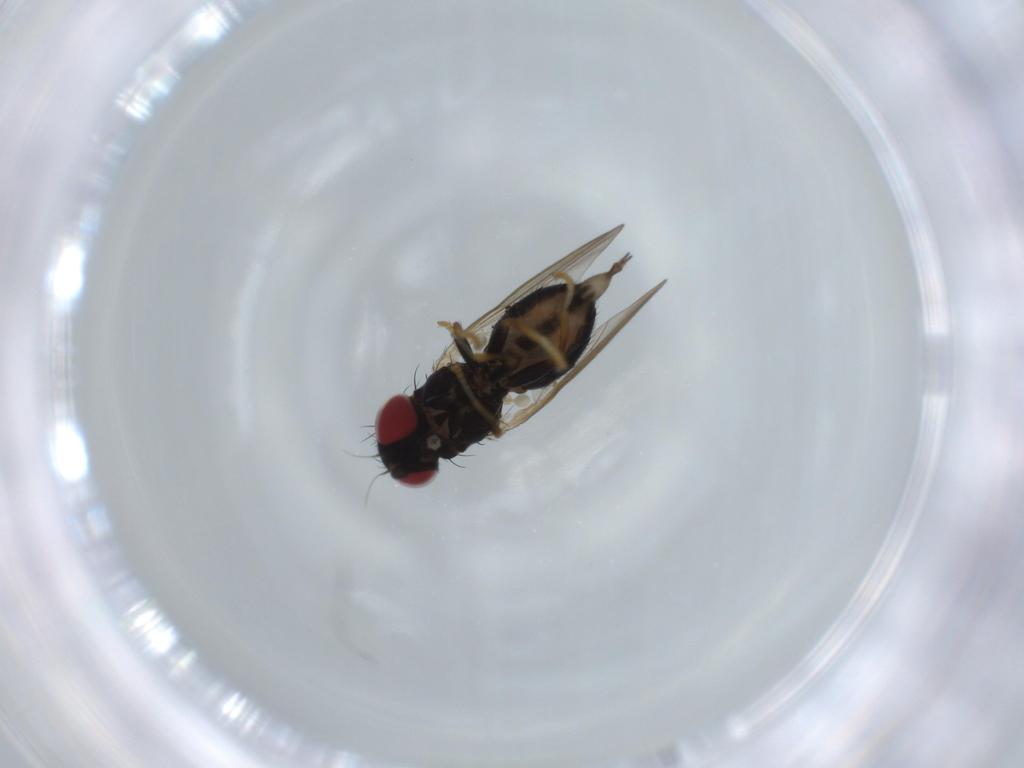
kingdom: Animalia
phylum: Arthropoda
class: Insecta
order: Diptera
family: Chamaemyiidae
